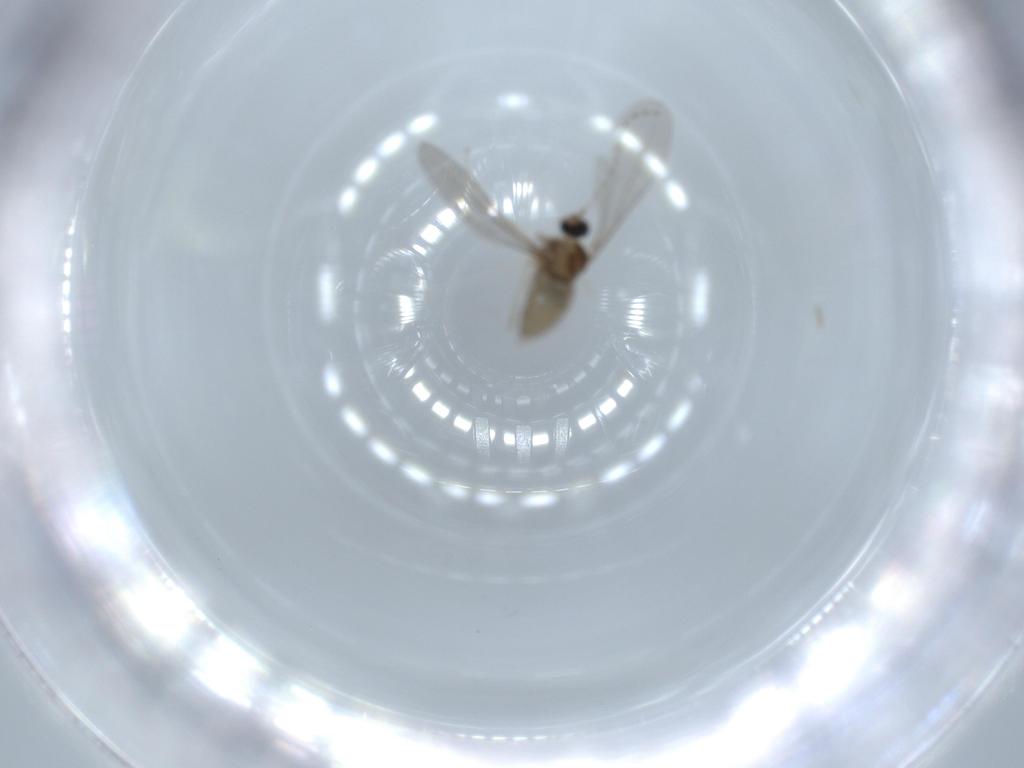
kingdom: Animalia
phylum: Arthropoda
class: Insecta
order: Diptera
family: Cecidomyiidae
